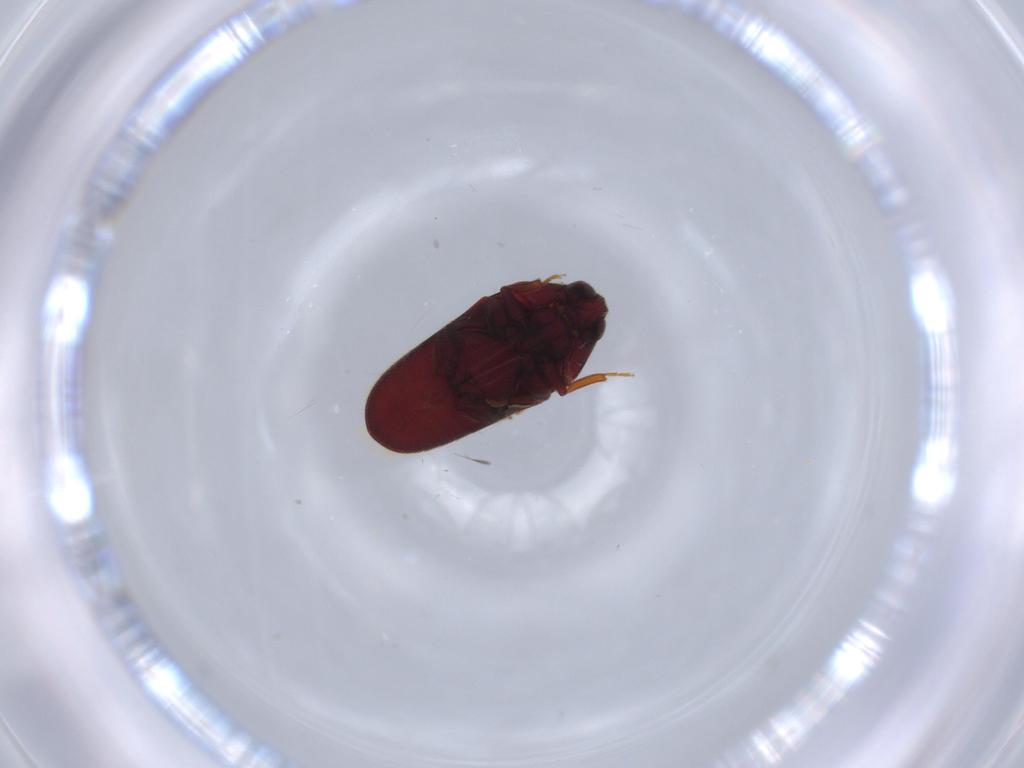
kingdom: Animalia
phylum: Arthropoda
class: Insecta
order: Coleoptera
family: Throscidae
